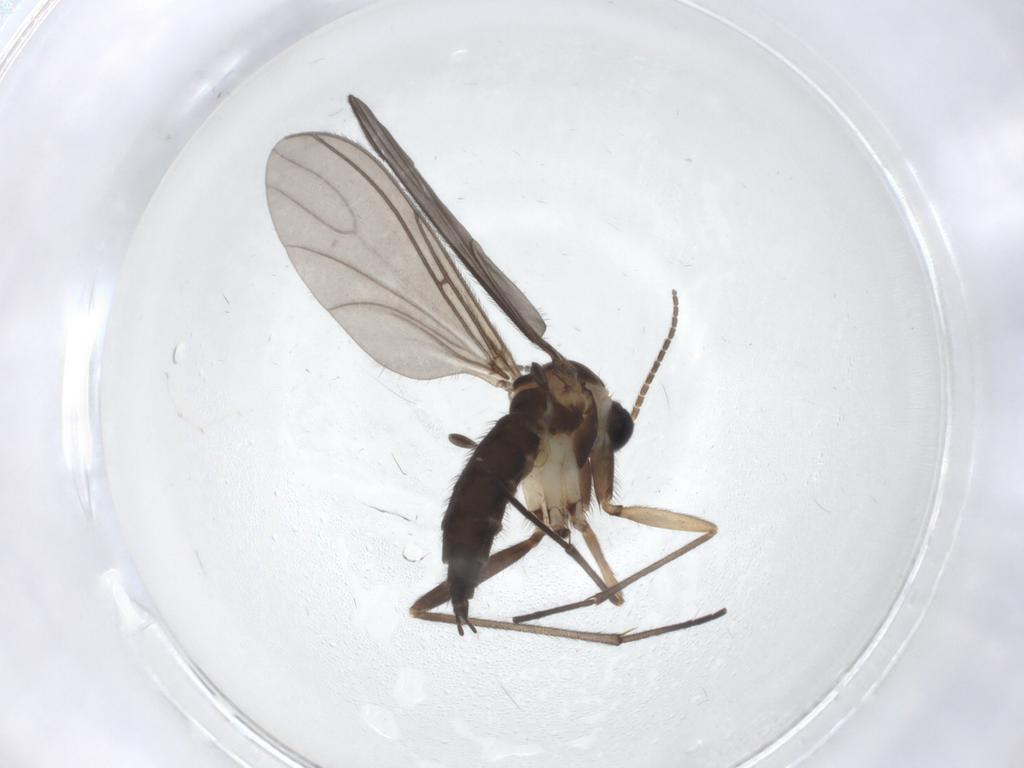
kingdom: Animalia
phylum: Arthropoda
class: Insecta
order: Diptera
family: Sciaridae
